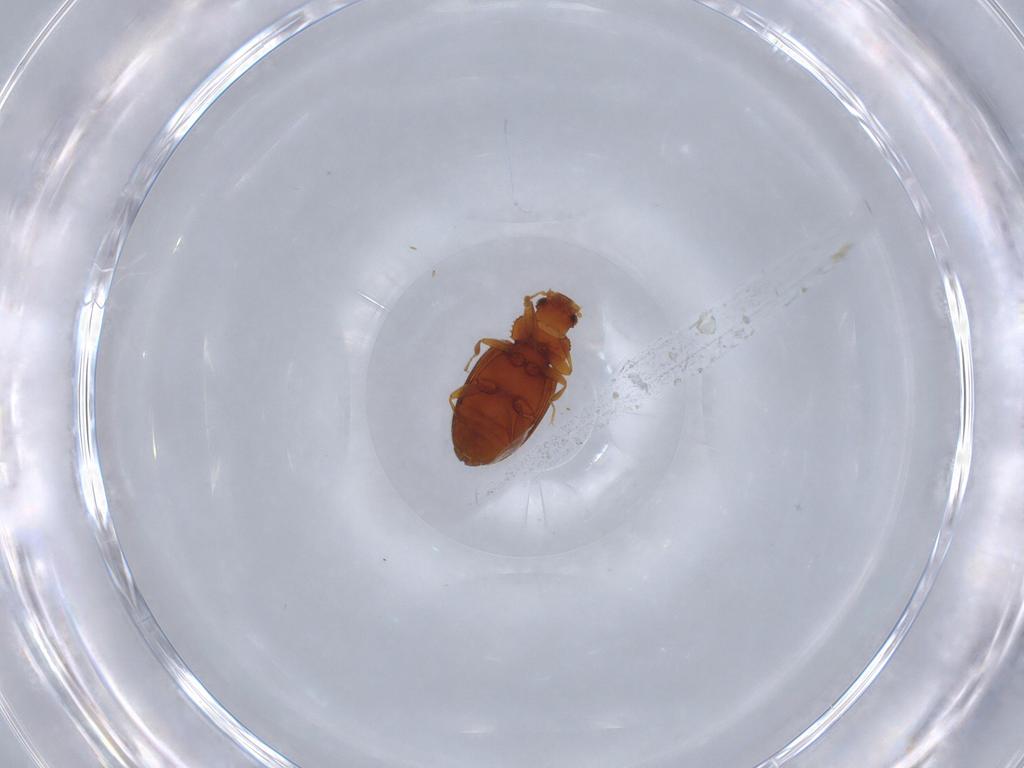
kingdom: Animalia
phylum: Arthropoda
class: Insecta
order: Coleoptera
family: Latridiidae
